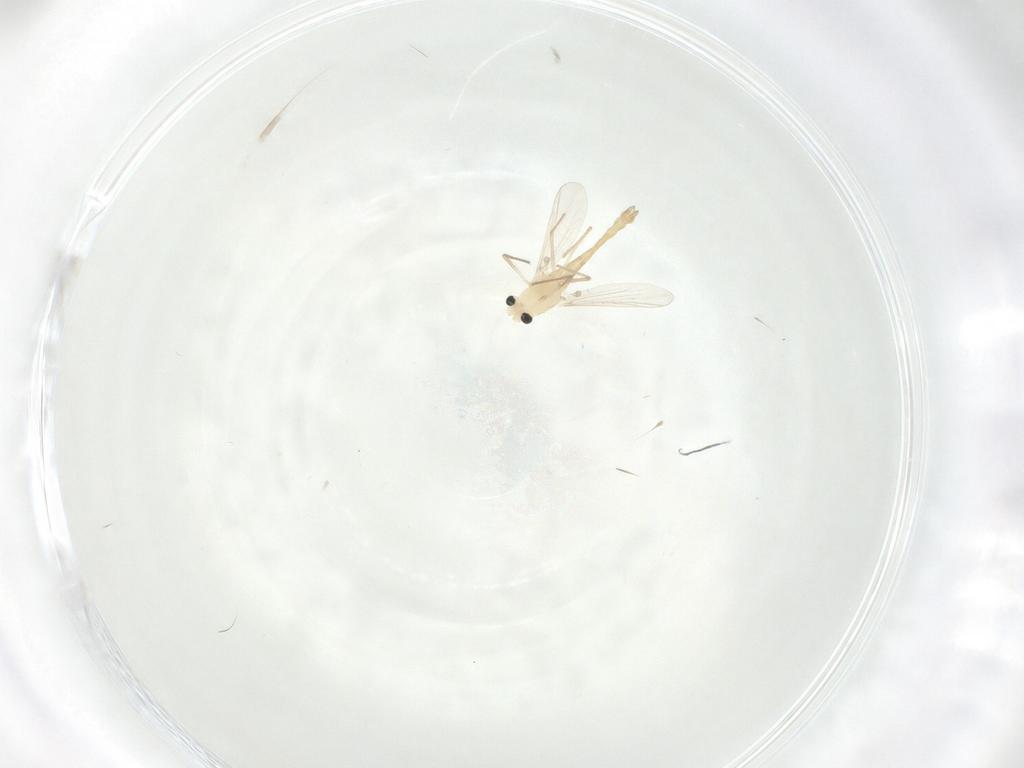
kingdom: Animalia
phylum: Arthropoda
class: Insecta
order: Diptera
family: Chironomidae
